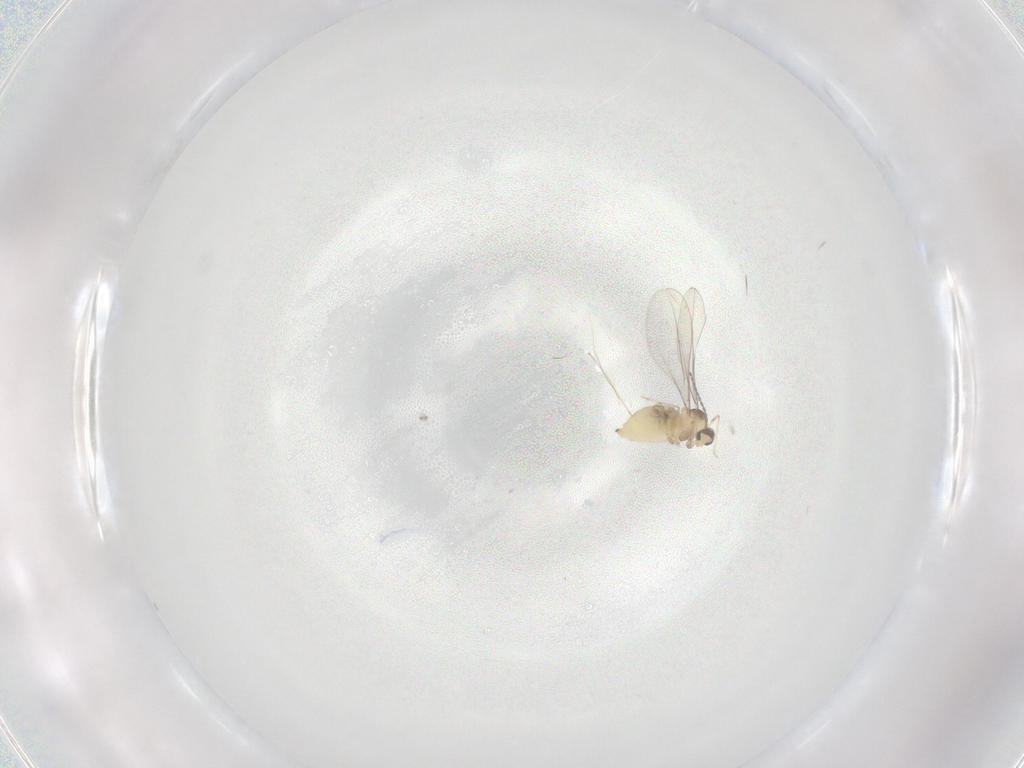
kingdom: Animalia
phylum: Arthropoda
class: Insecta
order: Diptera
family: Cecidomyiidae
